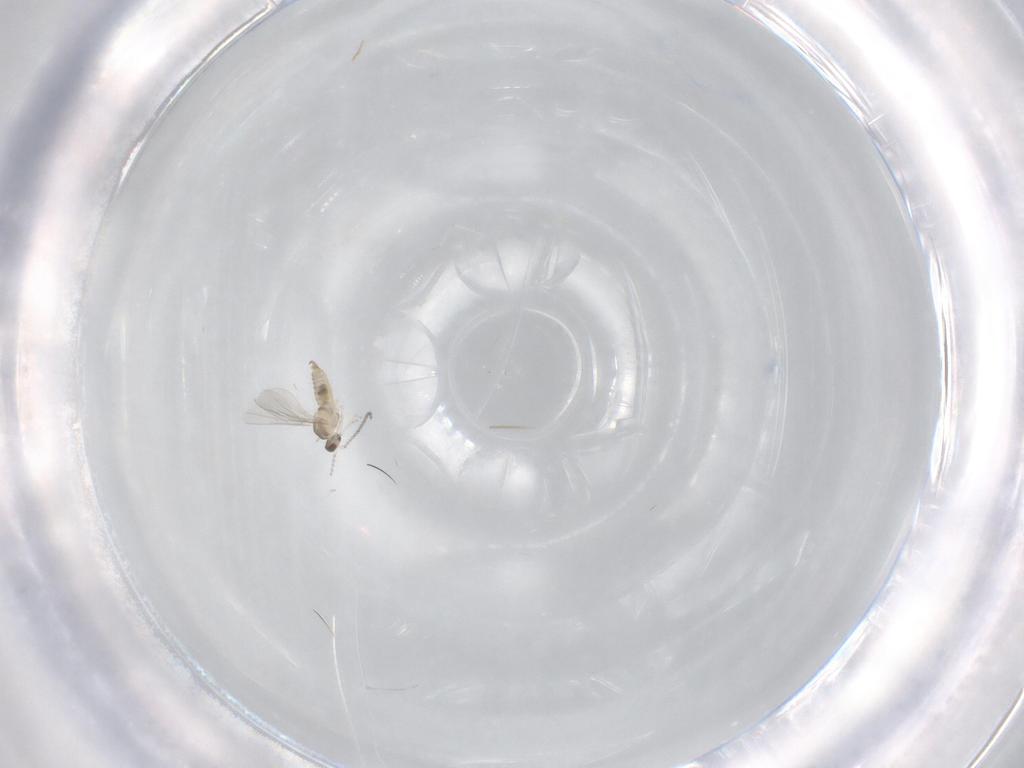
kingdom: Animalia
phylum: Arthropoda
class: Insecta
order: Diptera
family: Cecidomyiidae
